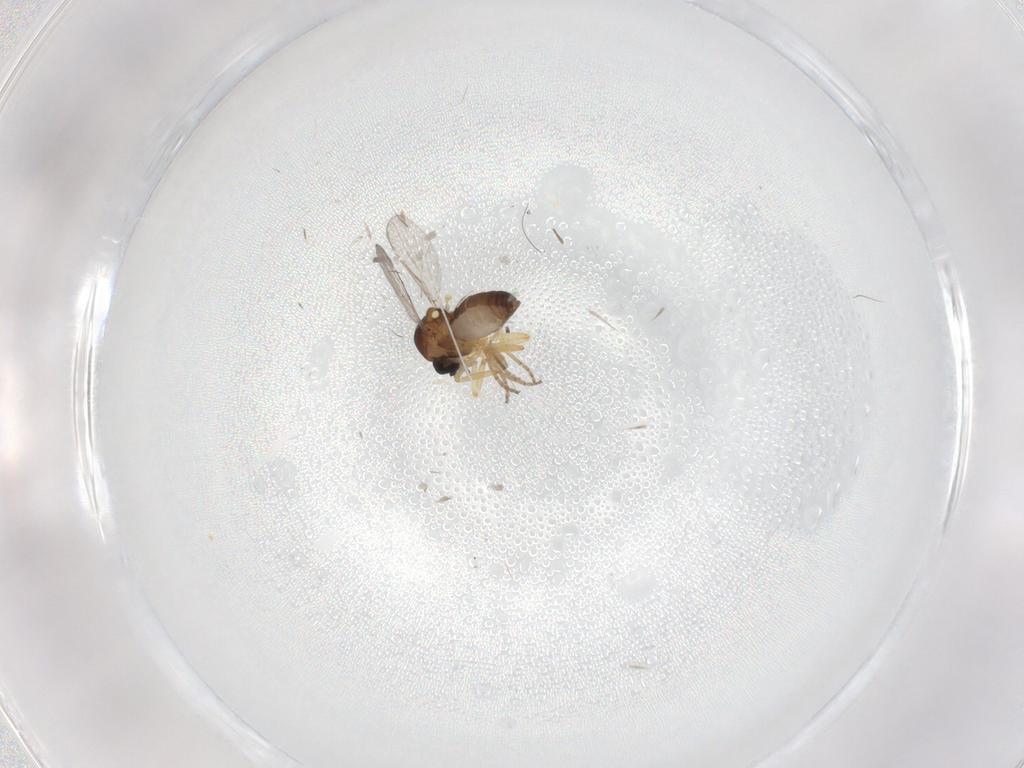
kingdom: Animalia
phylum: Arthropoda
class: Insecta
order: Diptera
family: Ceratopogonidae
